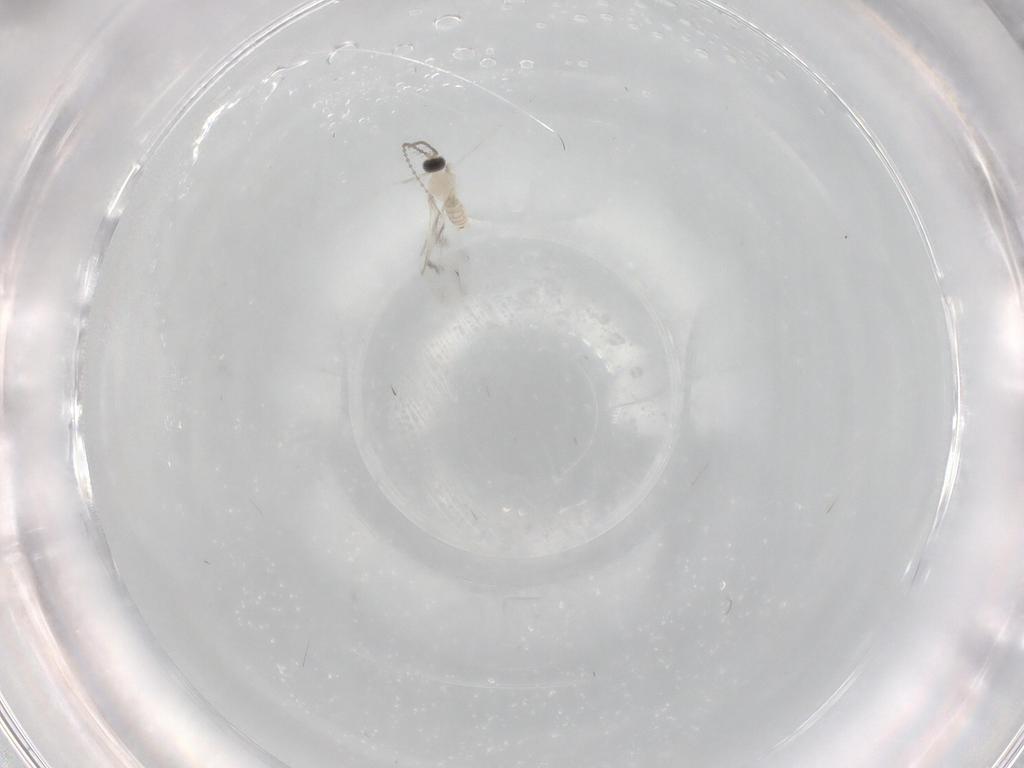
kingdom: Animalia
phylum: Arthropoda
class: Insecta
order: Diptera
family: Cecidomyiidae
